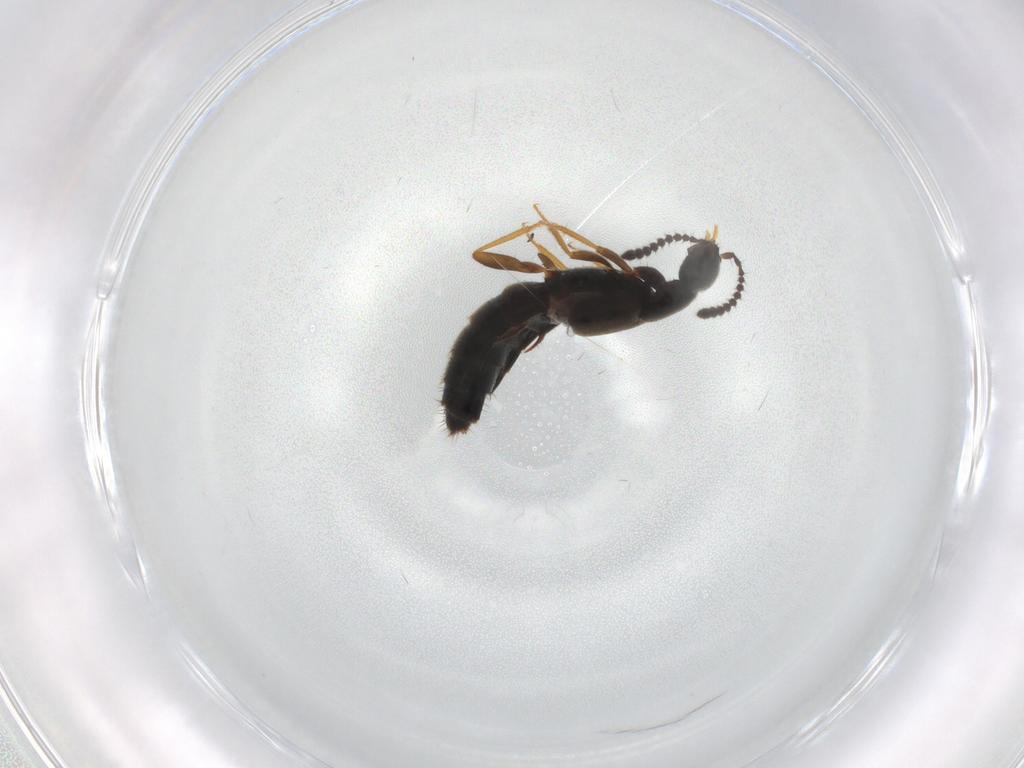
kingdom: Animalia
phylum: Arthropoda
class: Insecta
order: Coleoptera
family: Staphylinidae
